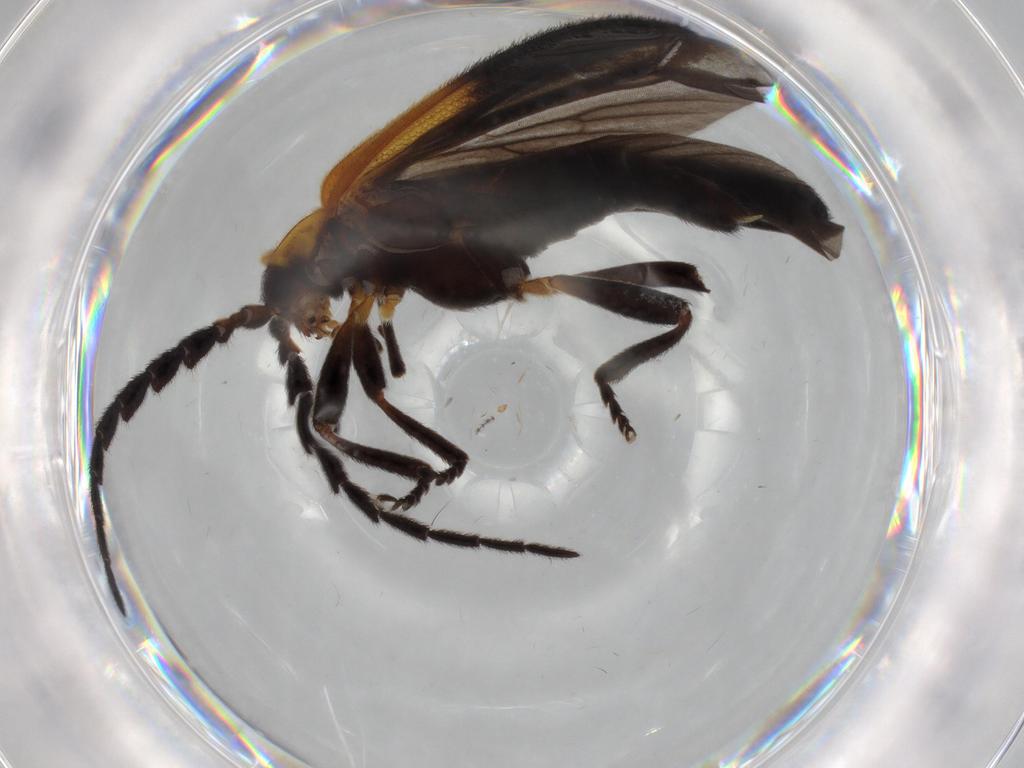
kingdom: Animalia
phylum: Arthropoda
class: Insecta
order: Coleoptera
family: Lycidae
